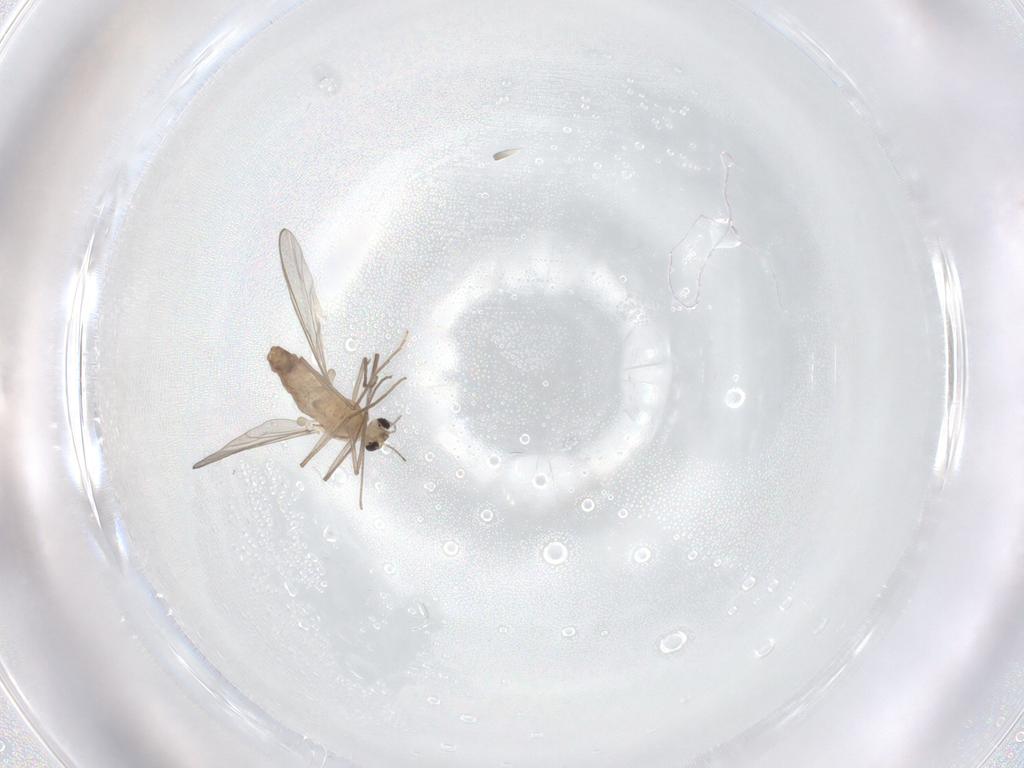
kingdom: Animalia
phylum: Arthropoda
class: Insecta
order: Diptera
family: Chironomidae
